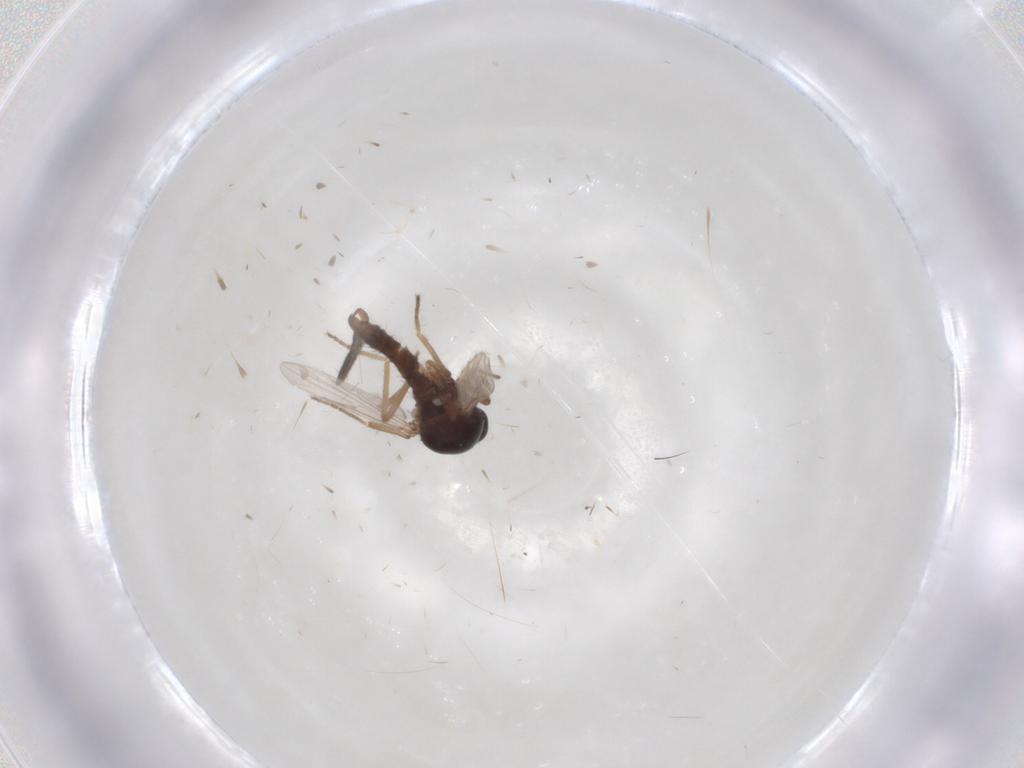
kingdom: Animalia
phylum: Arthropoda
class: Insecta
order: Diptera
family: Ceratopogonidae
